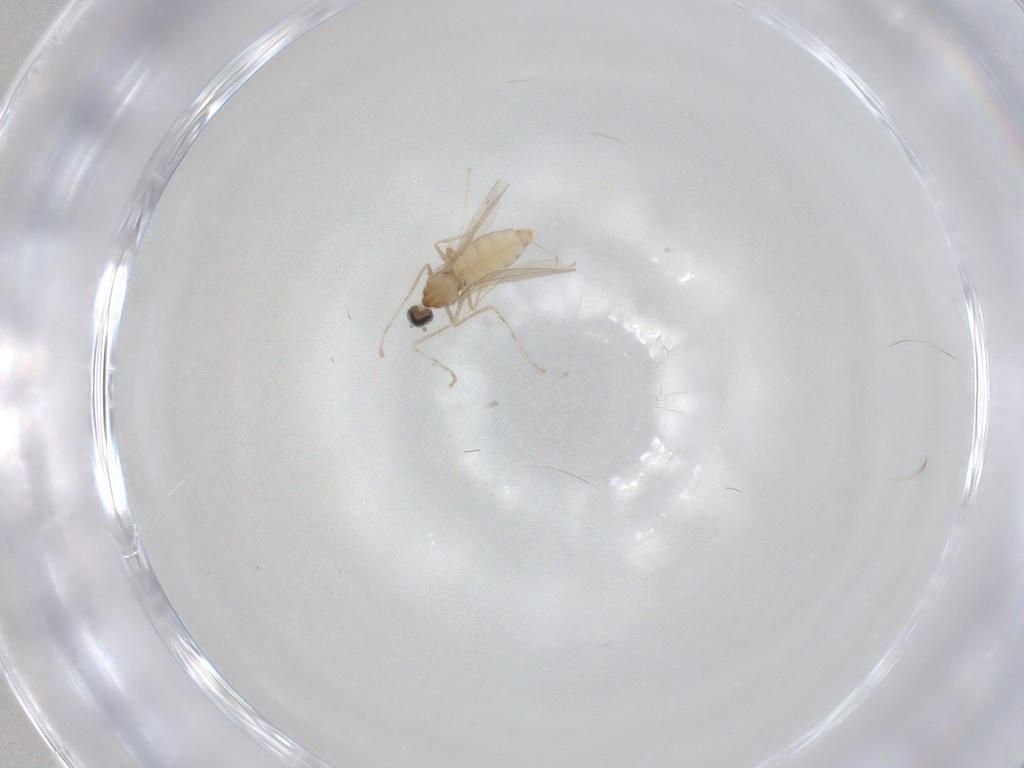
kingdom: Animalia
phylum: Arthropoda
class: Insecta
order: Diptera
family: Cecidomyiidae
